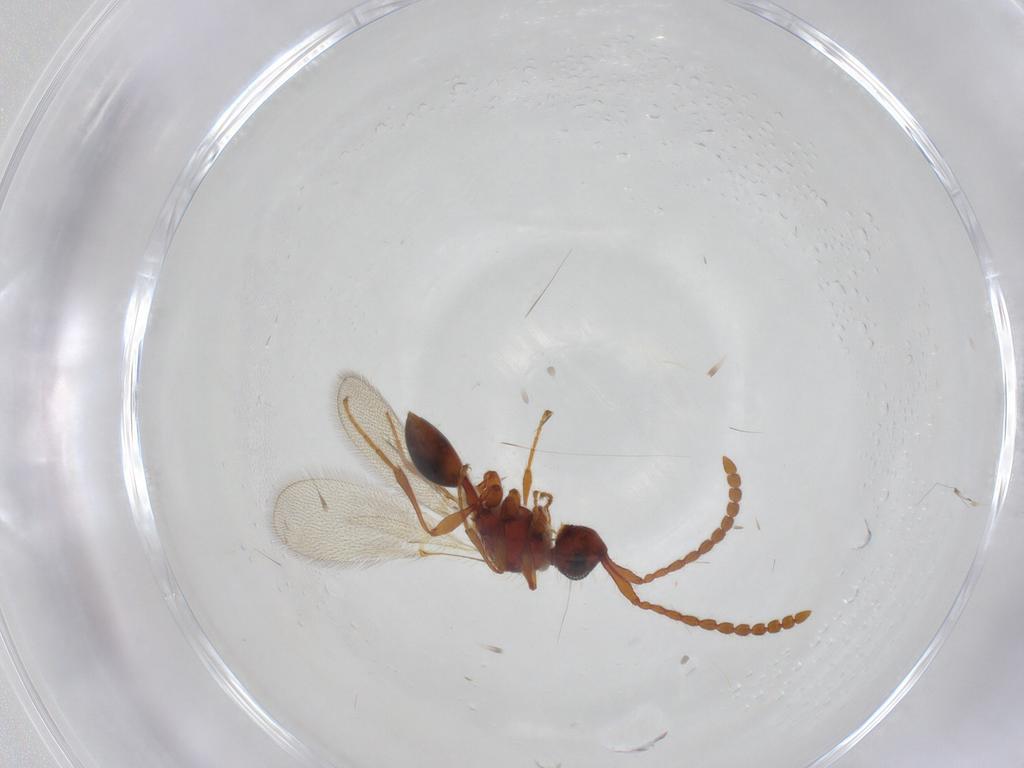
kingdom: Animalia
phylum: Arthropoda
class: Insecta
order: Hymenoptera
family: Diapriidae
